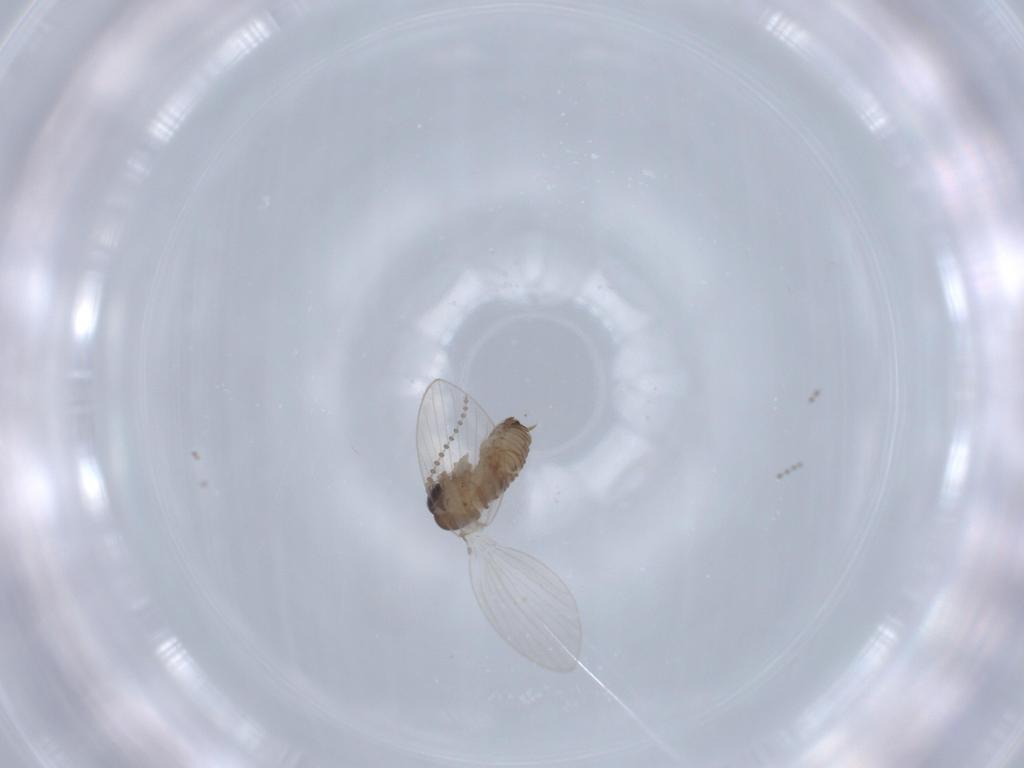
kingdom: Animalia
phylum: Arthropoda
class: Insecta
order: Diptera
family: Psychodidae
